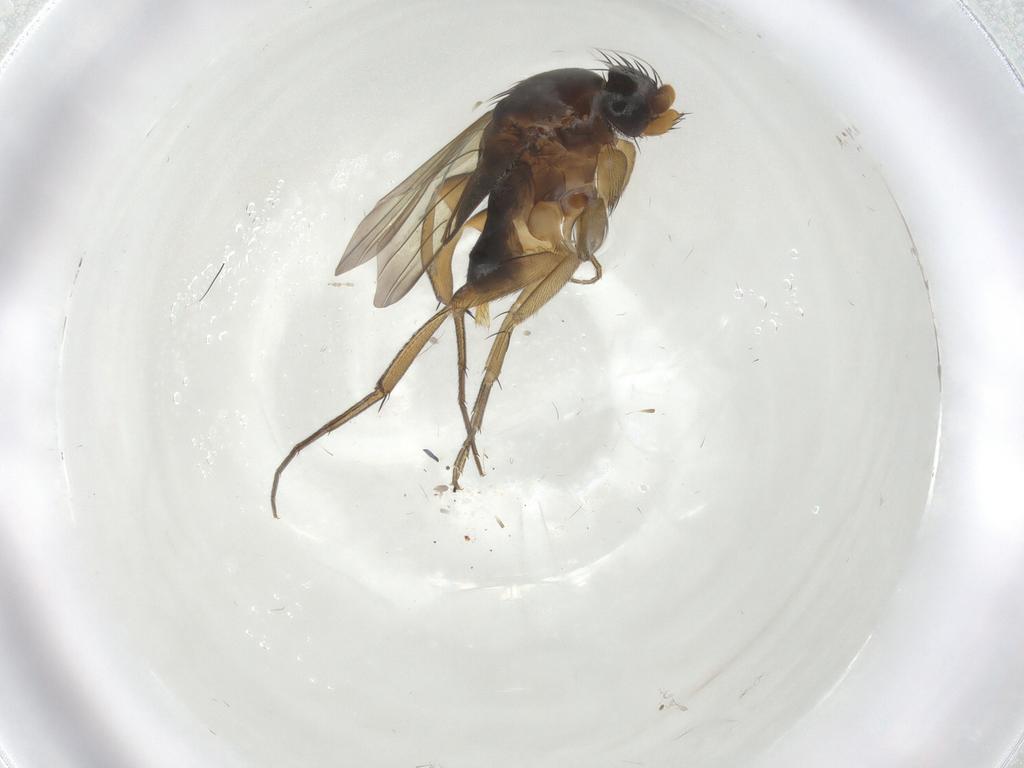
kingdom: Animalia
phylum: Arthropoda
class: Insecta
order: Diptera
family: Phoridae
